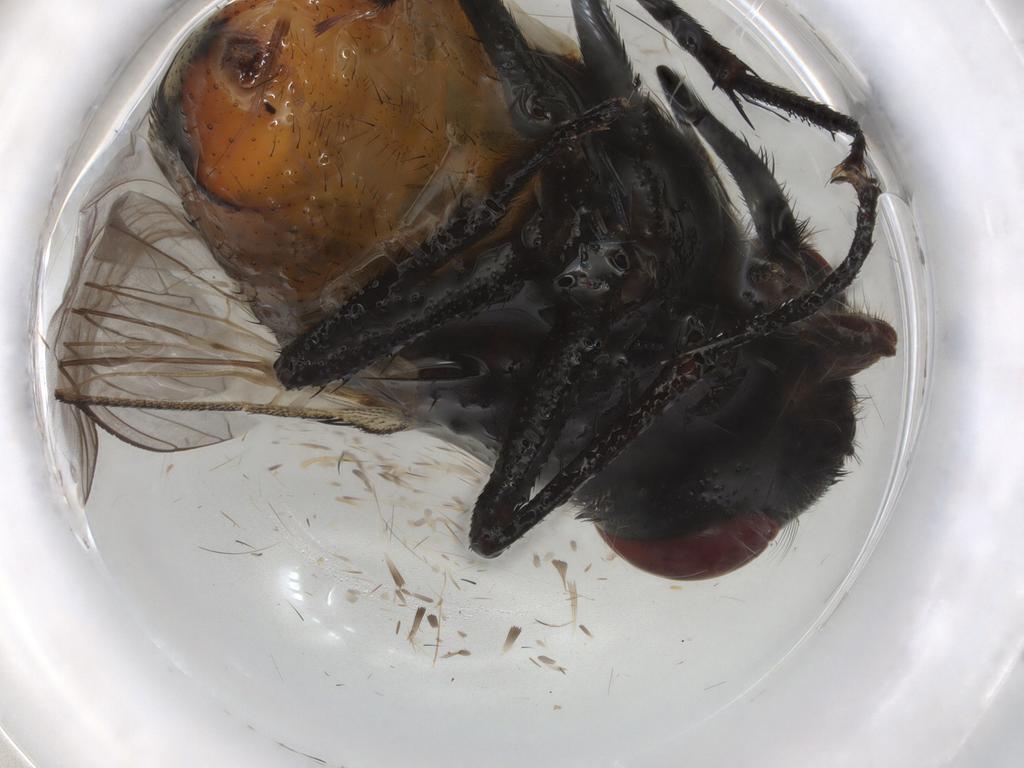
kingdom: Animalia
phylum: Arthropoda
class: Insecta
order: Diptera
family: Muscidae
